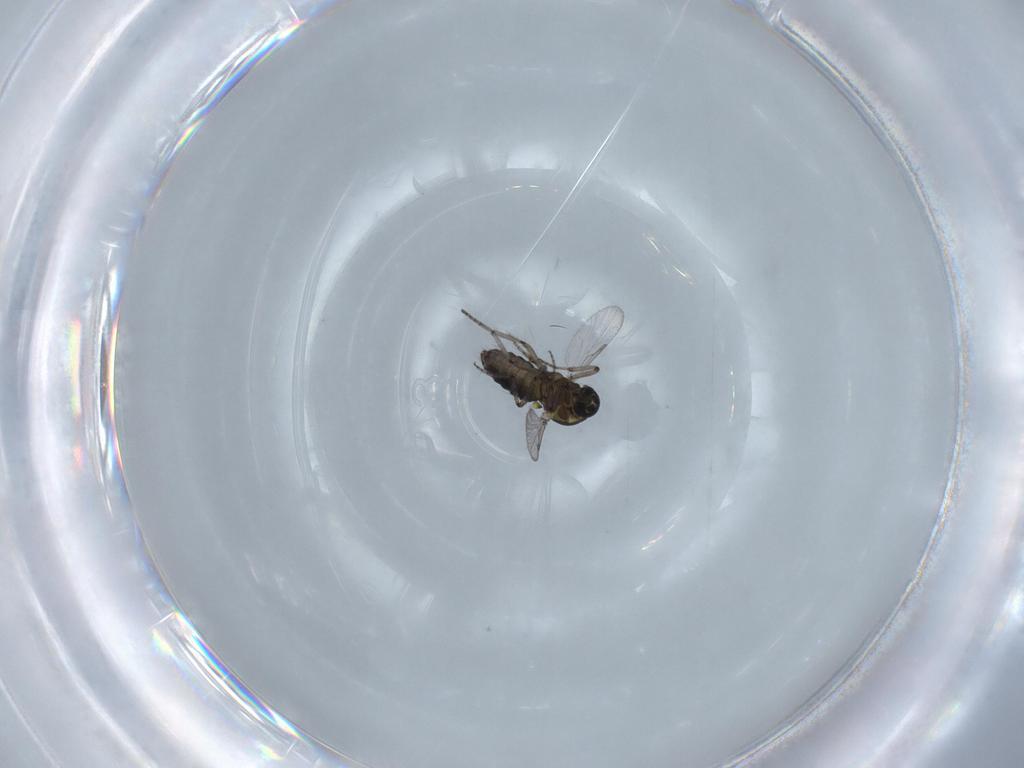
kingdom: Animalia
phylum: Arthropoda
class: Insecta
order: Diptera
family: Ceratopogonidae
